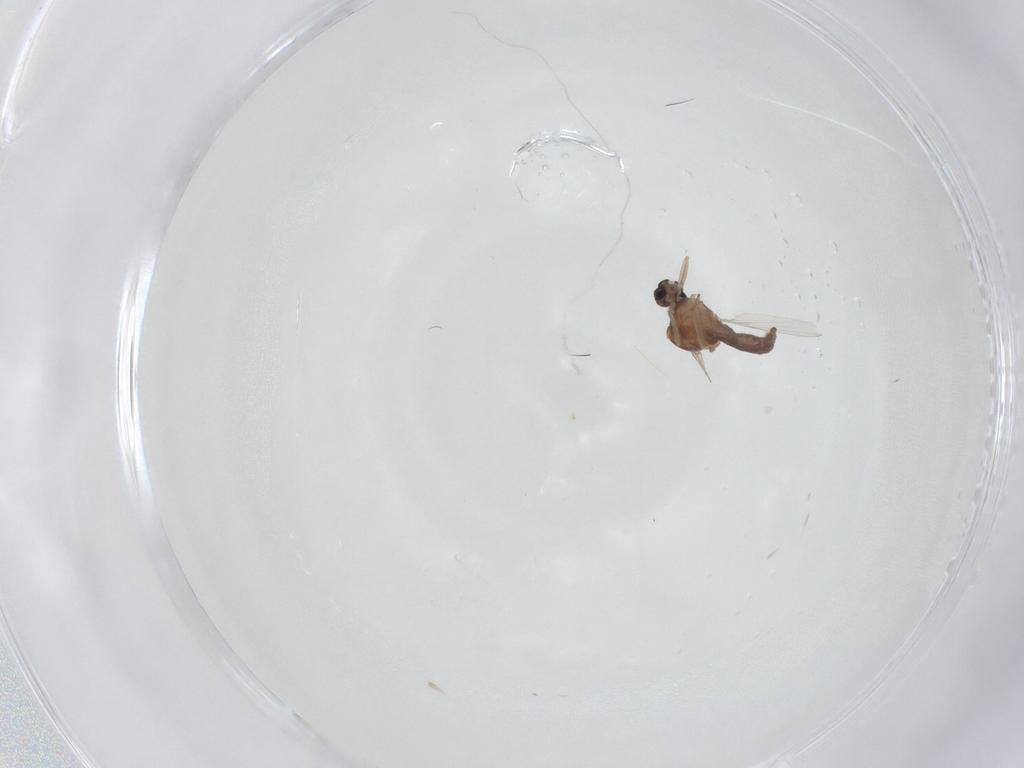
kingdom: Animalia
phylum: Arthropoda
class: Insecta
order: Diptera
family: Ceratopogonidae
